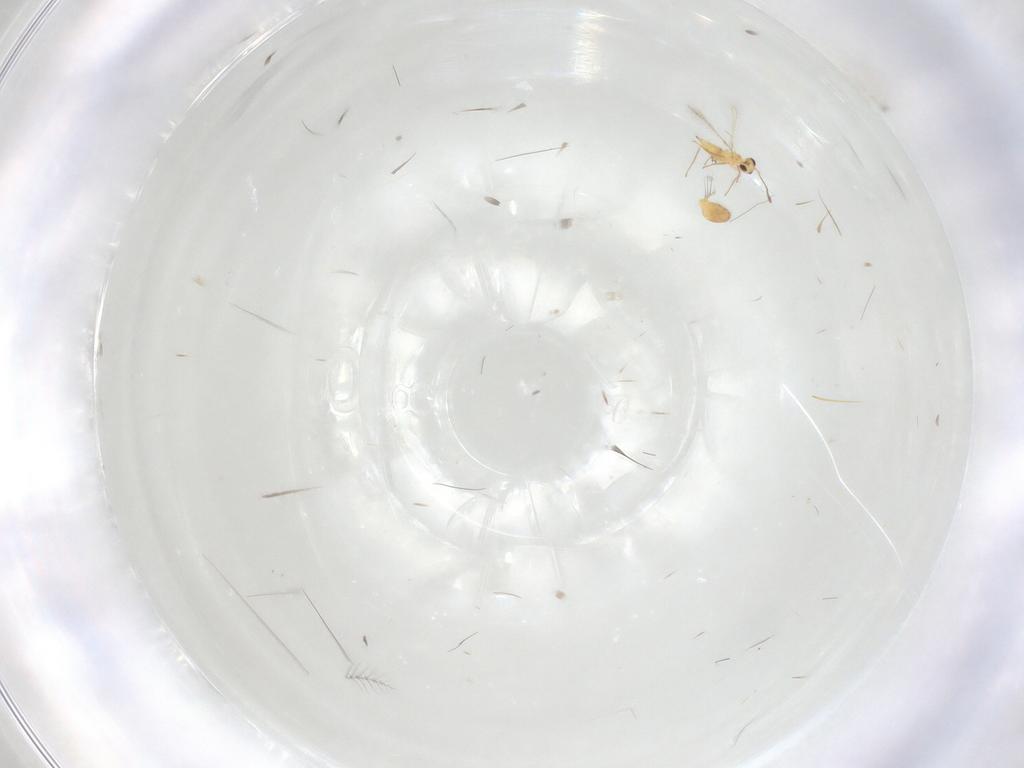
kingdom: Animalia
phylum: Arthropoda
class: Insecta
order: Hymenoptera
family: Mymaridae
